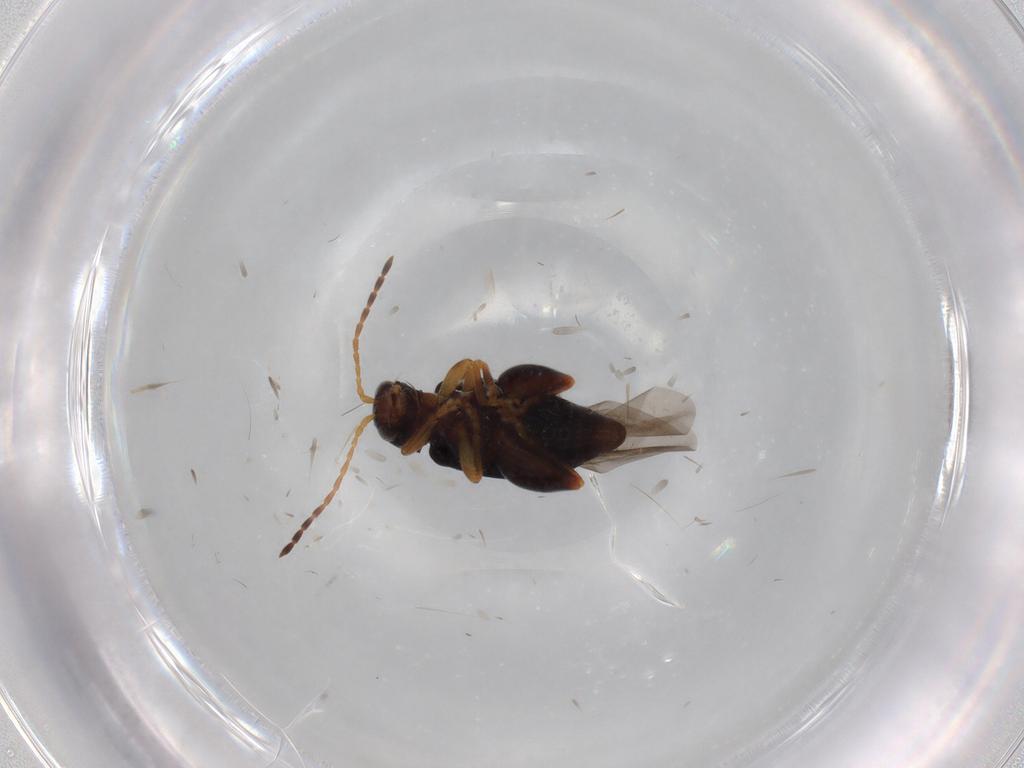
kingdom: Animalia
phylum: Arthropoda
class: Insecta
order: Coleoptera
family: Chrysomelidae
